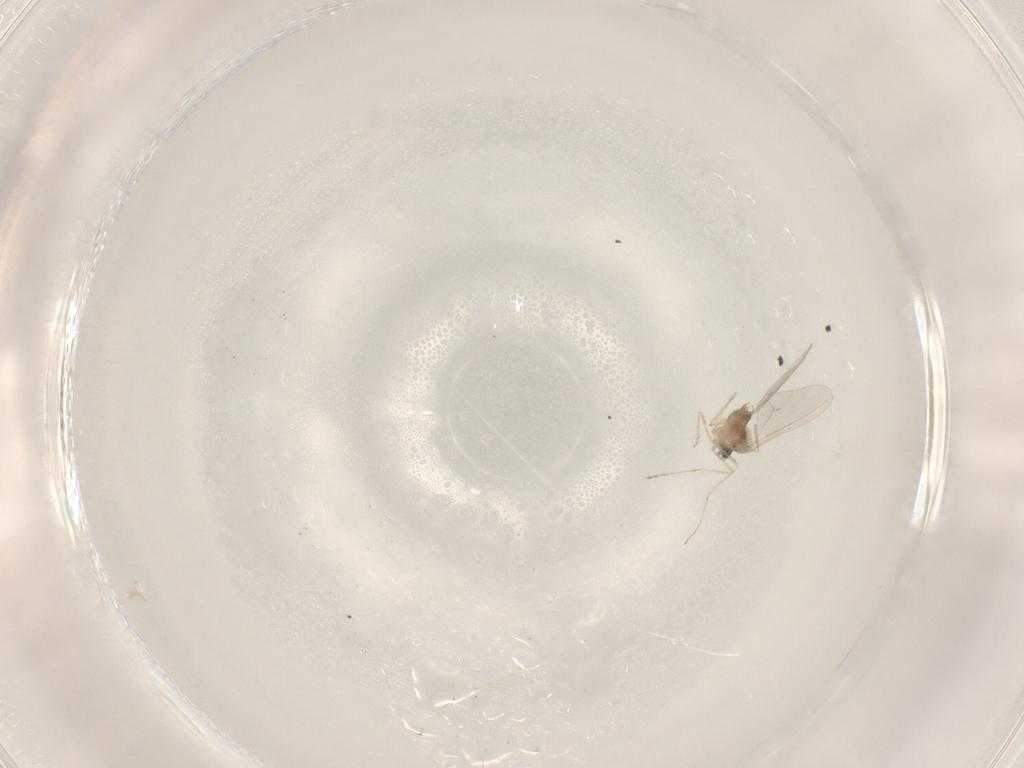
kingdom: Animalia
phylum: Arthropoda
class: Insecta
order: Diptera
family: Cecidomyiidae
